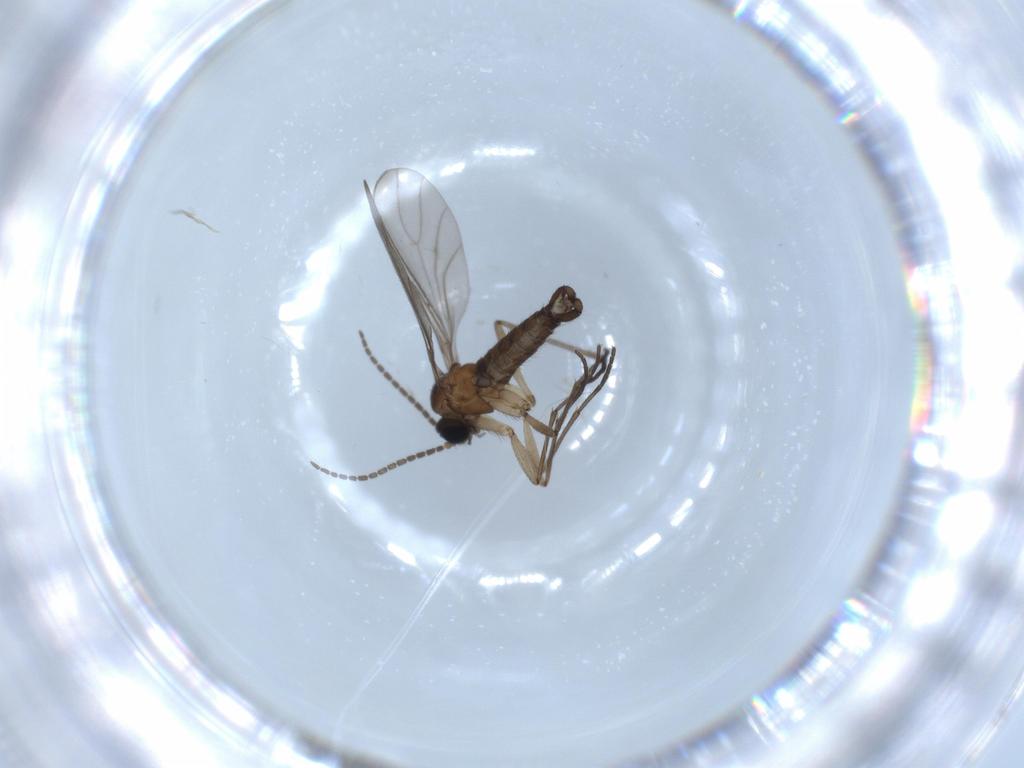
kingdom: Animalia
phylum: Arthropoda
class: Insecta
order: Diptera
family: Sciaridae
